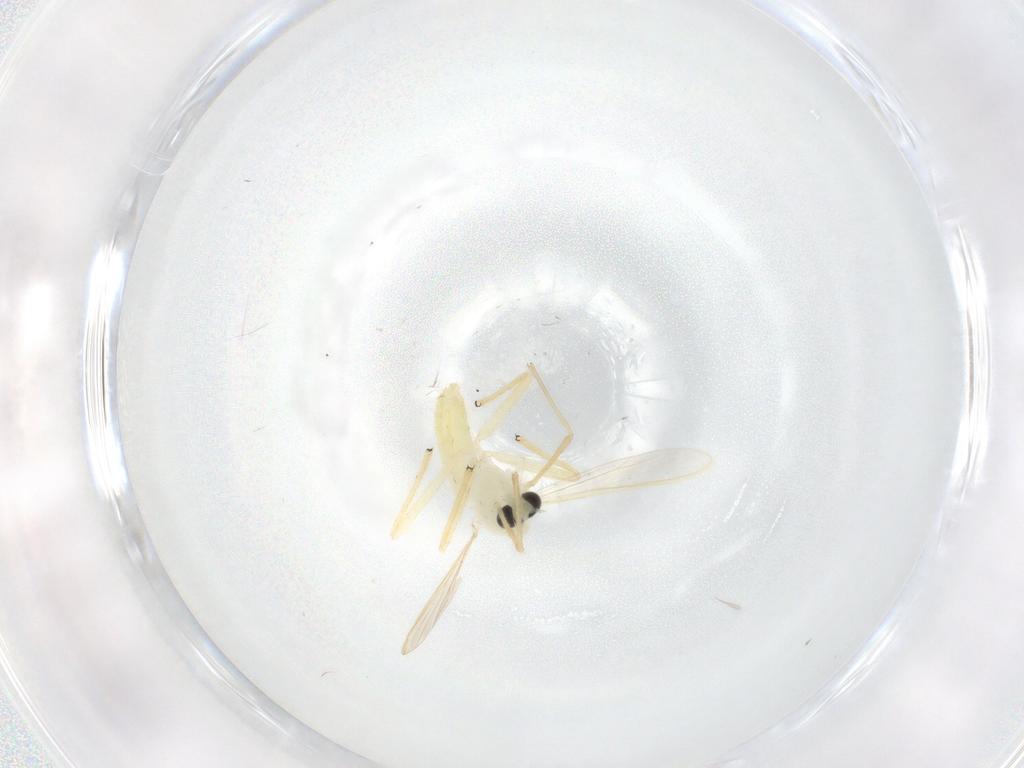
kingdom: Animalia
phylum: Arthropoda
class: Insecta
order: Diptera
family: Chironomidae
